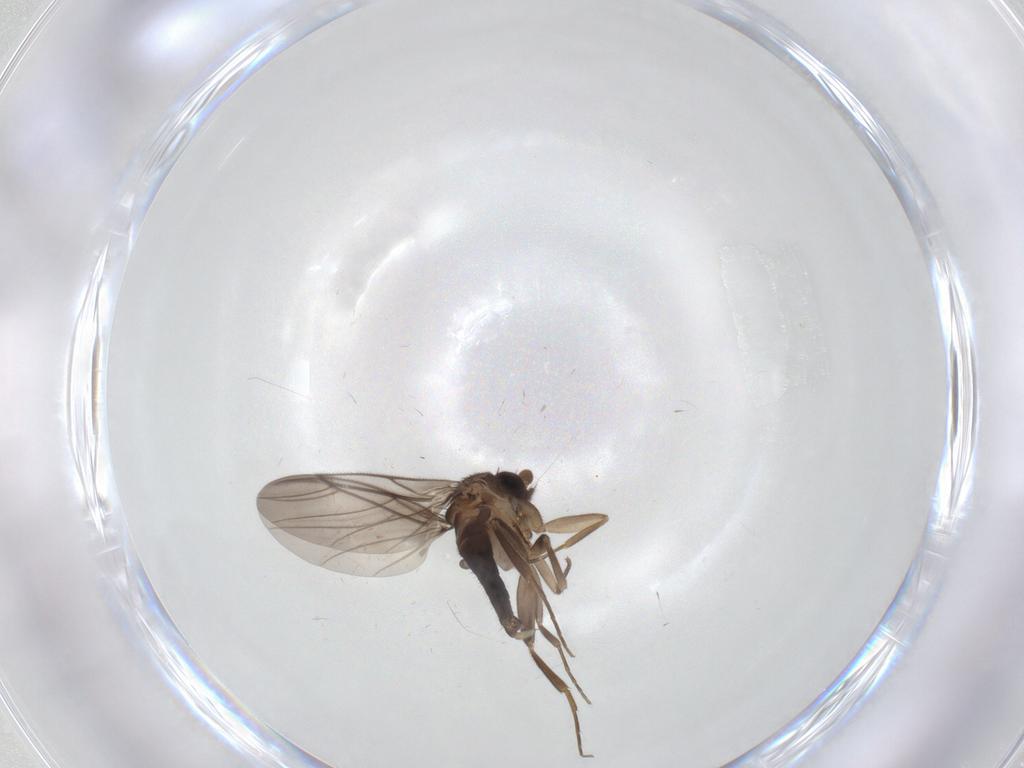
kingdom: Animalia
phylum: Arthropoda
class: Insecta
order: Diptera
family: Phoridae
